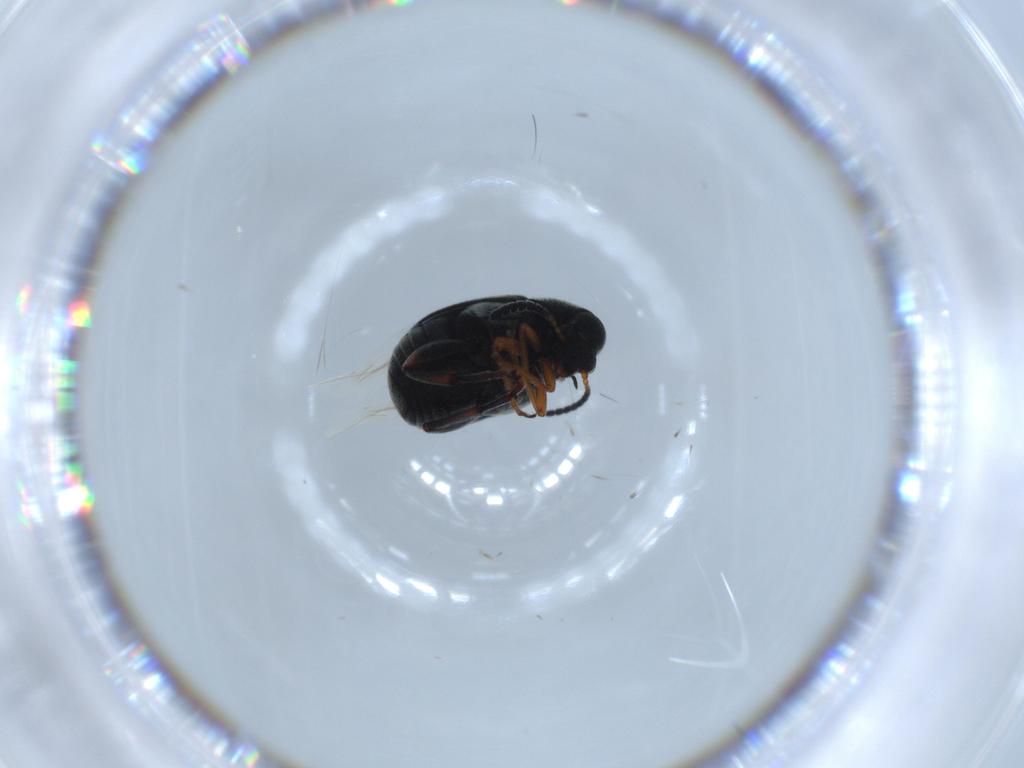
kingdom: Animalia
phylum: Arthropoda
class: Insecta
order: Coleoptera
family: Chrysomelidae
